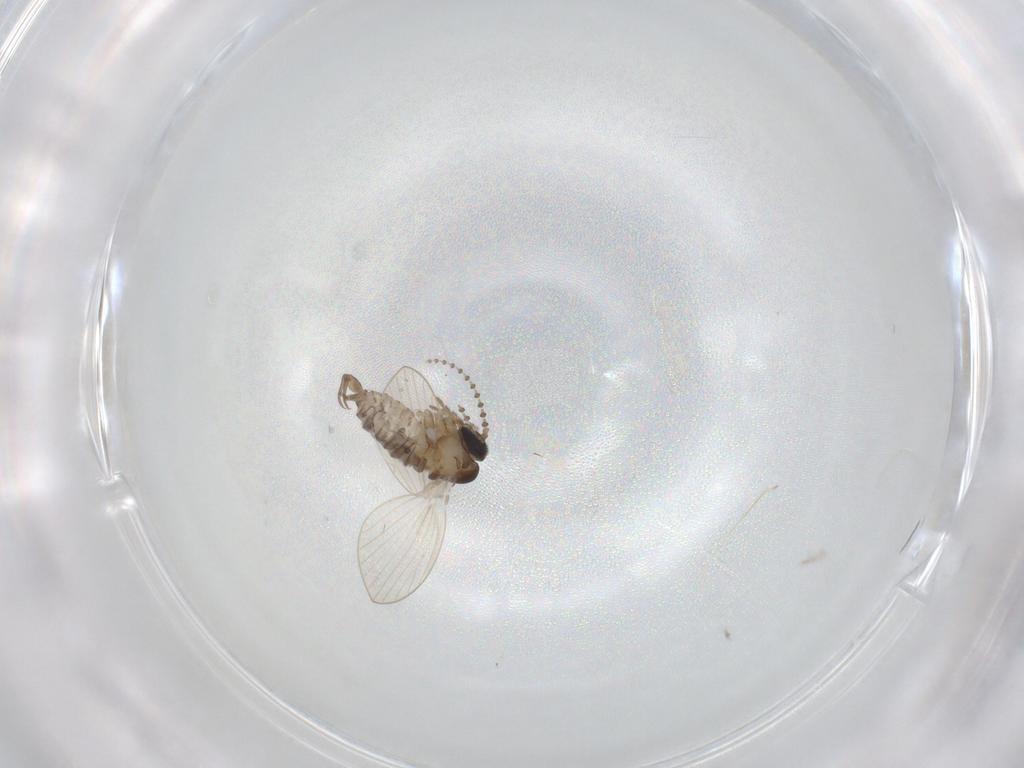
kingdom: Animalia
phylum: Arthropoda
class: Insecta
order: Diptera
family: Psychodidae
